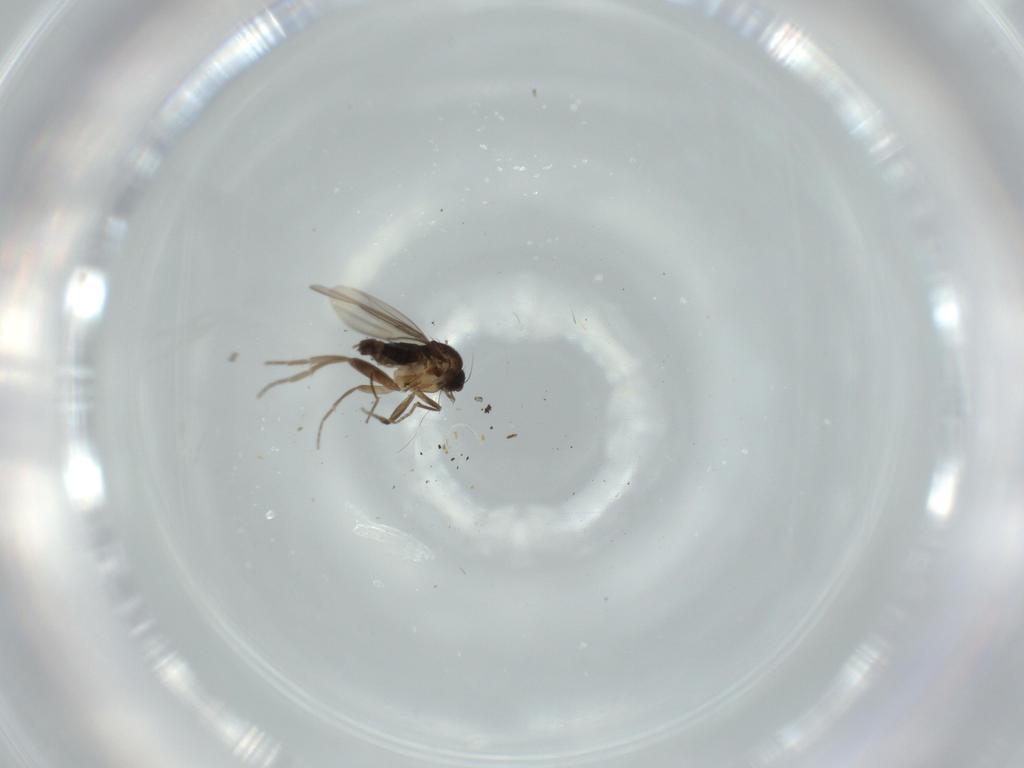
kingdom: Animalia
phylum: Arthropoda
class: Insecta
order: Diptera
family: Phoridae
